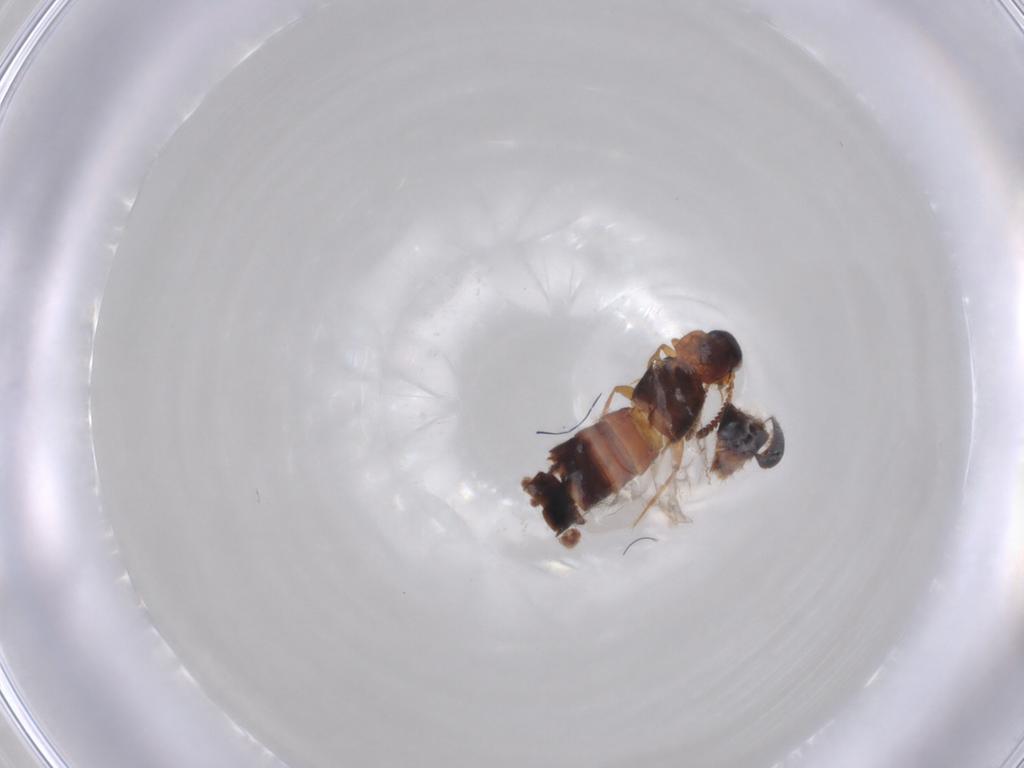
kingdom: Animalia
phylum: Arthropoda
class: Insecta
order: Coleoptera
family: Staphylinidae
